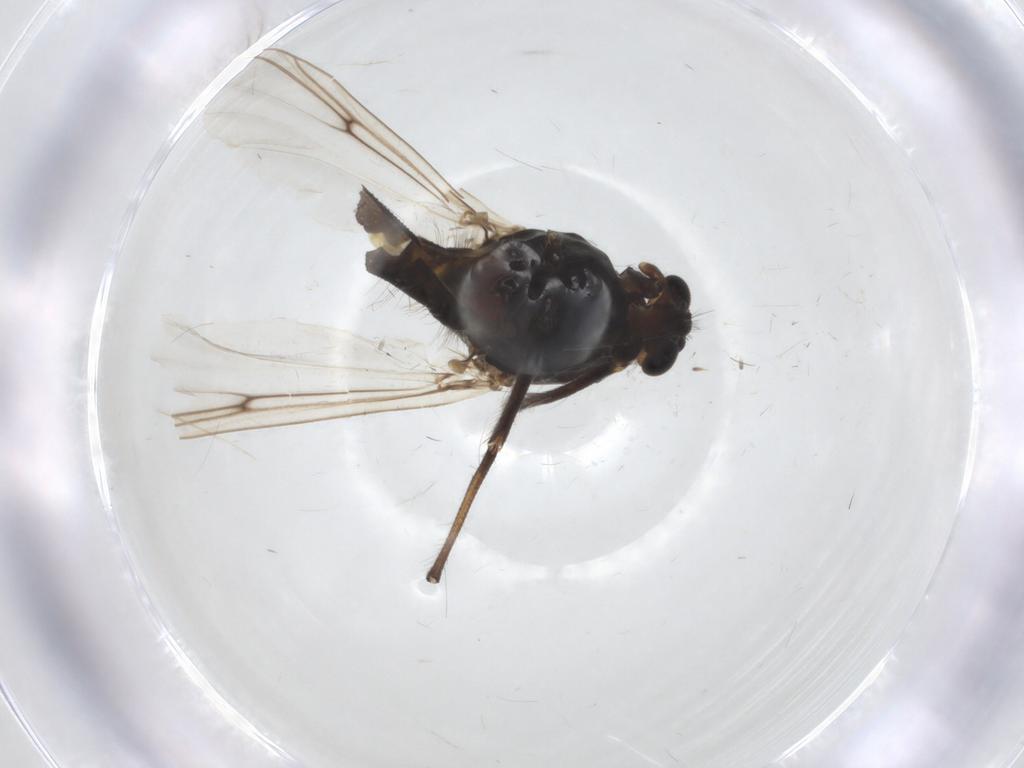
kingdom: Animalia
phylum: Arthropoda
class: Insecta
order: Diptera
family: Chironomidae
